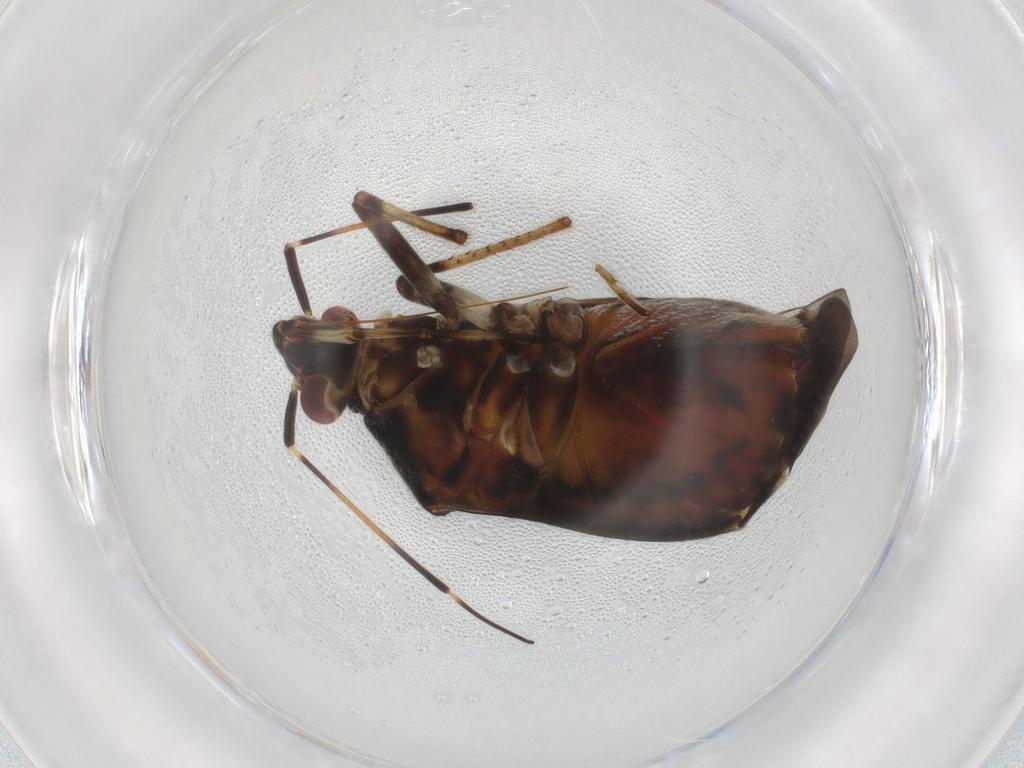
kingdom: Animalia
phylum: Arthropoda
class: Insecta
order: Hemiptera
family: Miridae
